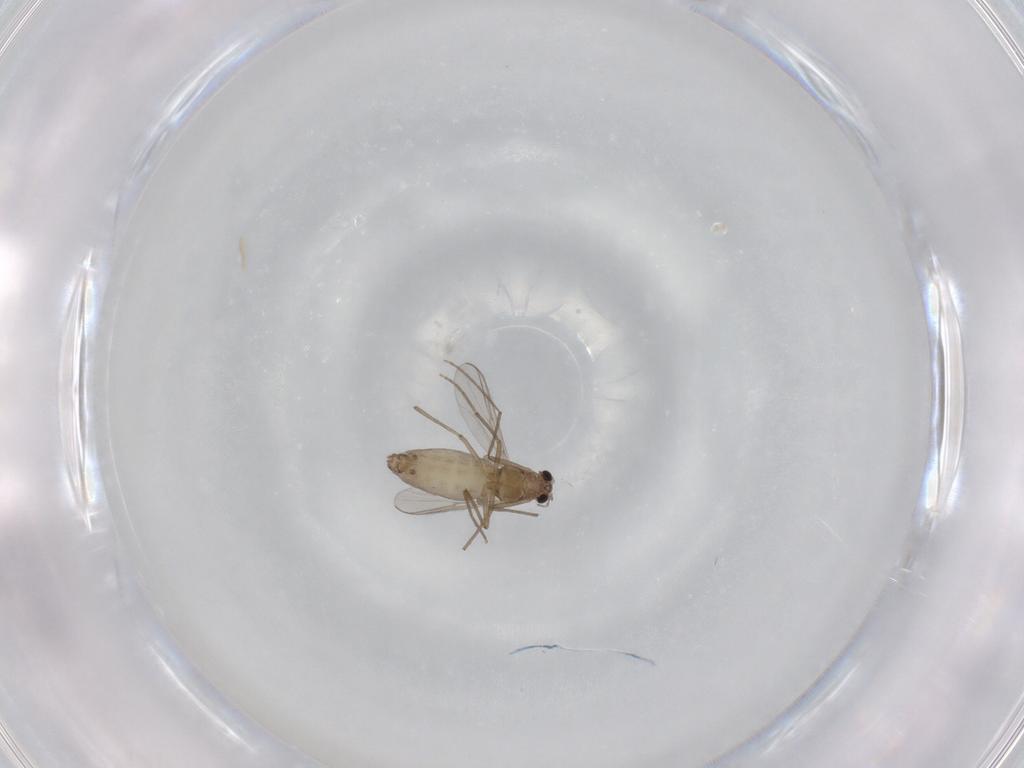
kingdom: Animalia
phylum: Arthropoda
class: Insecta
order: Diptera
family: Chironomidae
